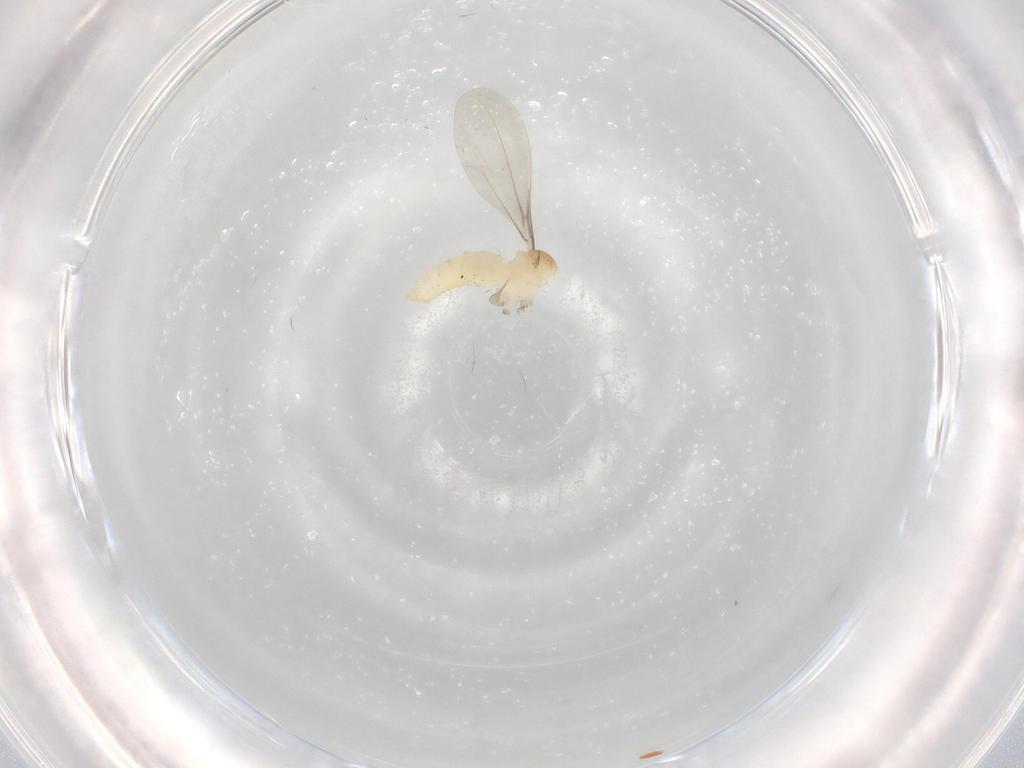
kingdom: Animalia
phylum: Arthropoda
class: Insecta
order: Diptera
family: Cecidomyiidae
